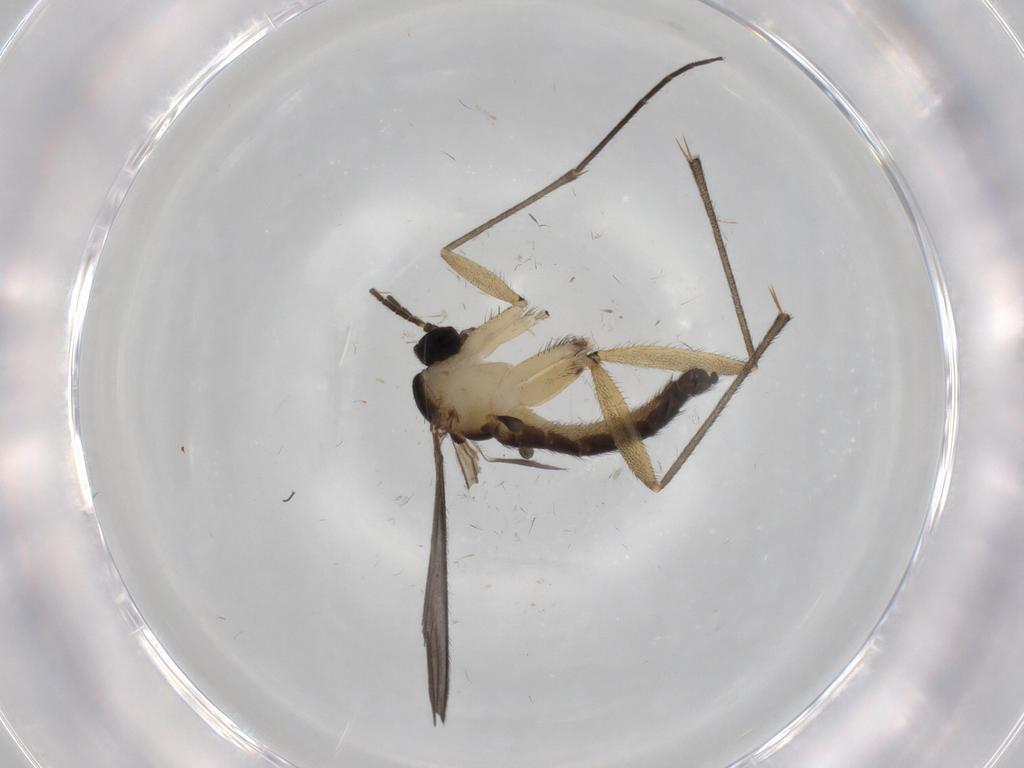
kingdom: Animalia
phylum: Arthropoda
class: Insecta
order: Diptera
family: Sciaridae
